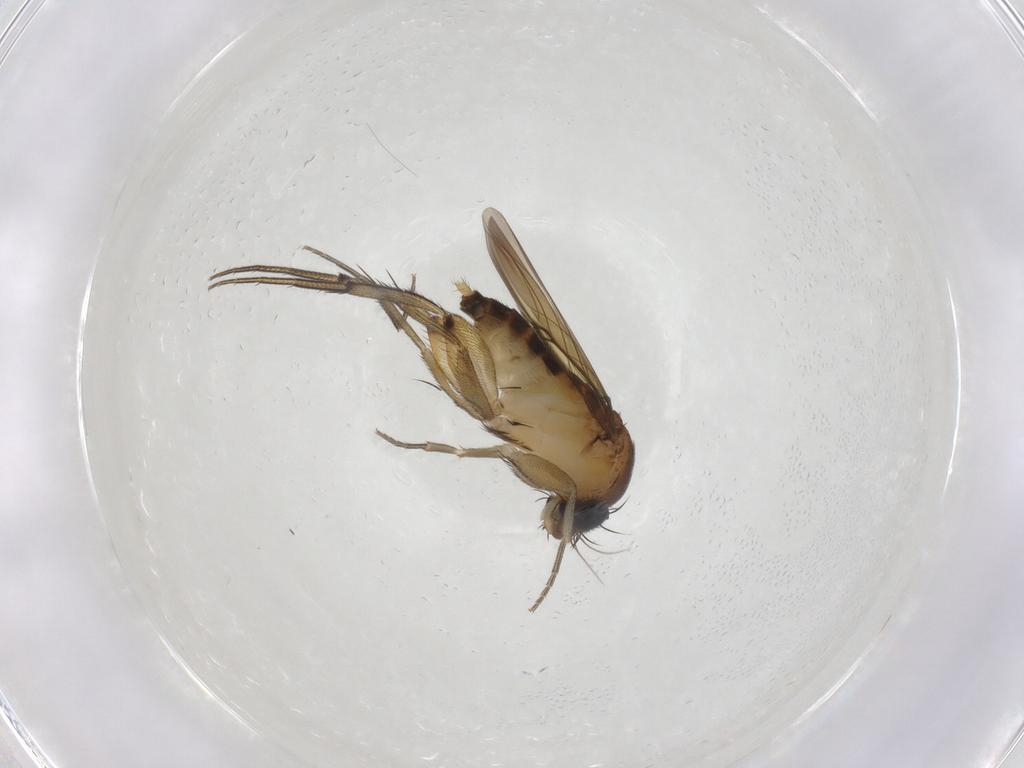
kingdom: Animalia
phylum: Arthropoda
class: Insecta
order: Diptera
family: Phoridae
